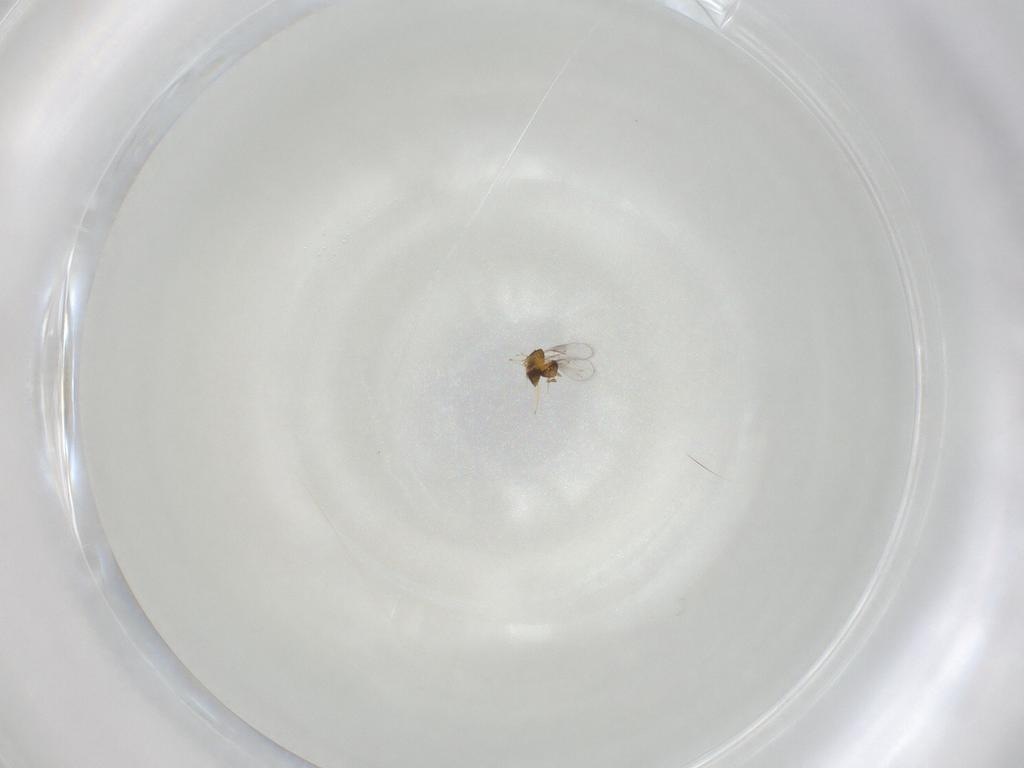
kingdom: Animalia
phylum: Arthropoda
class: Insecta
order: Hymenoptera
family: Trichogrammatidae
